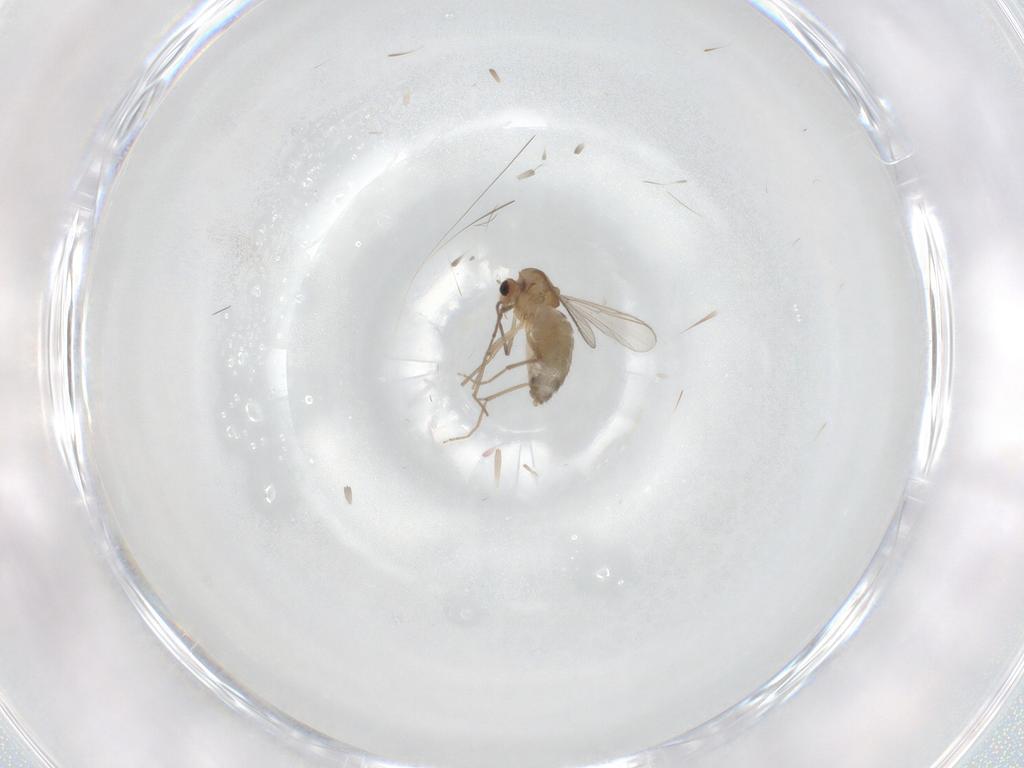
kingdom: Animalia
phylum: Arthropoda
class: Insecta
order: Diptera
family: Chironomidae
